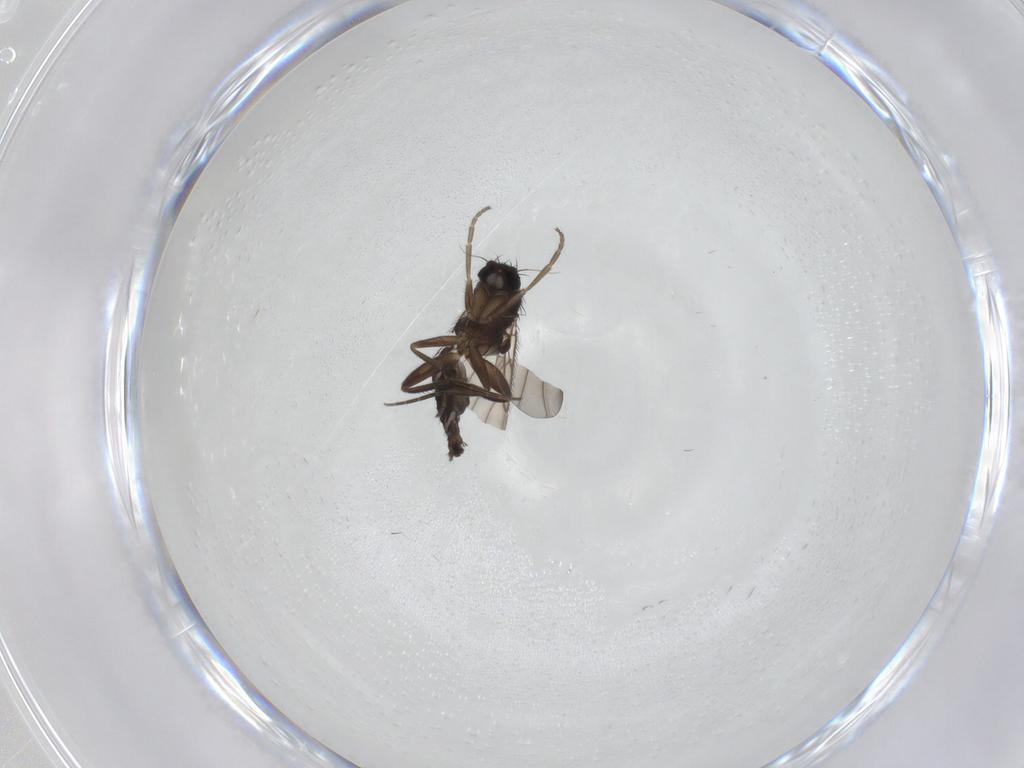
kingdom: Animalia
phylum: Arthropoda
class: Insecta
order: Diptera
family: Phoridae
